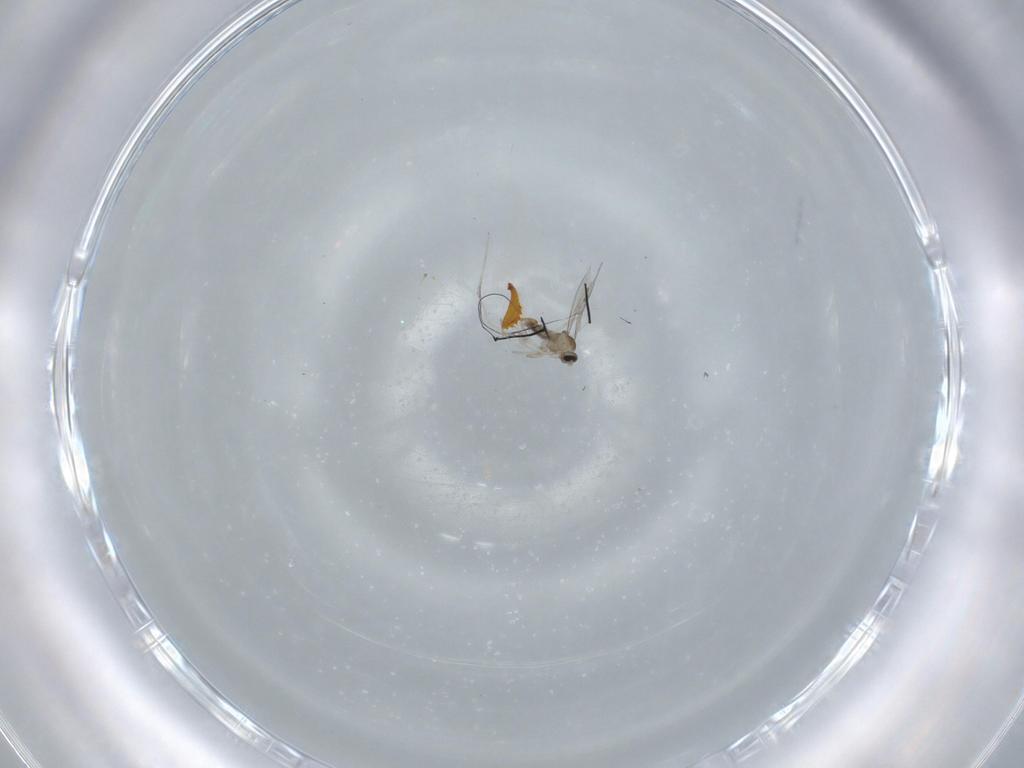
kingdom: Animalia
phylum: Arthropoda
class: Insecta
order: Diptera
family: Cecidomyiidae
